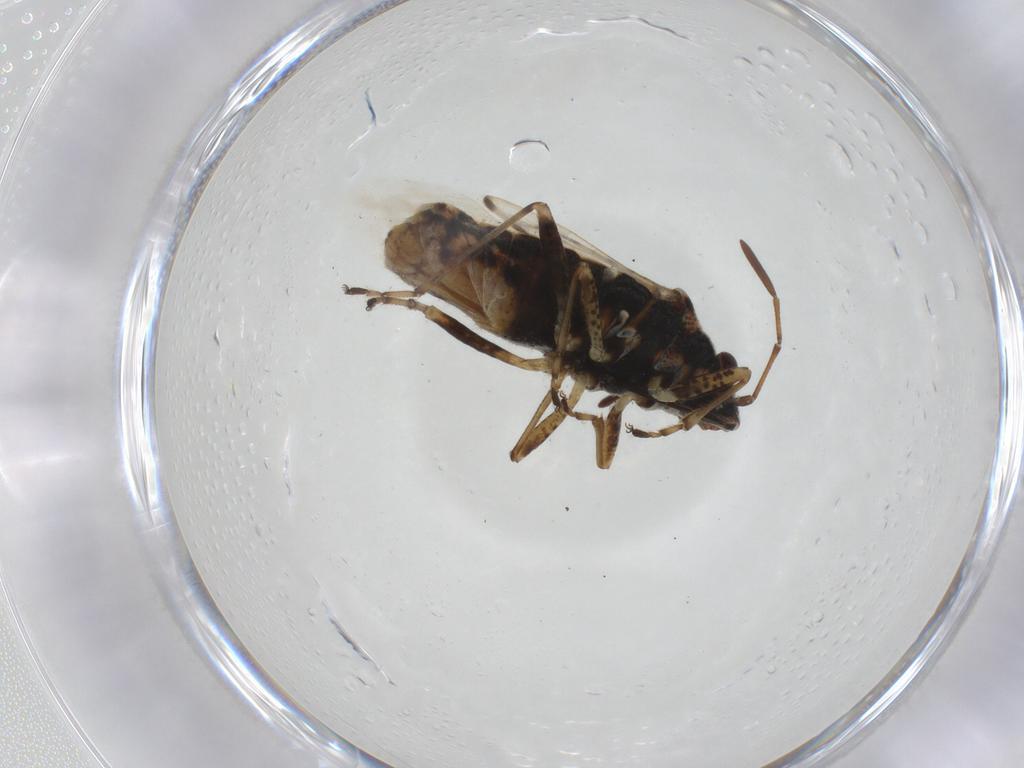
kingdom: Animalia
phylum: Arthropoda
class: Insecta
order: Hemiptera
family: Lygaeidae
